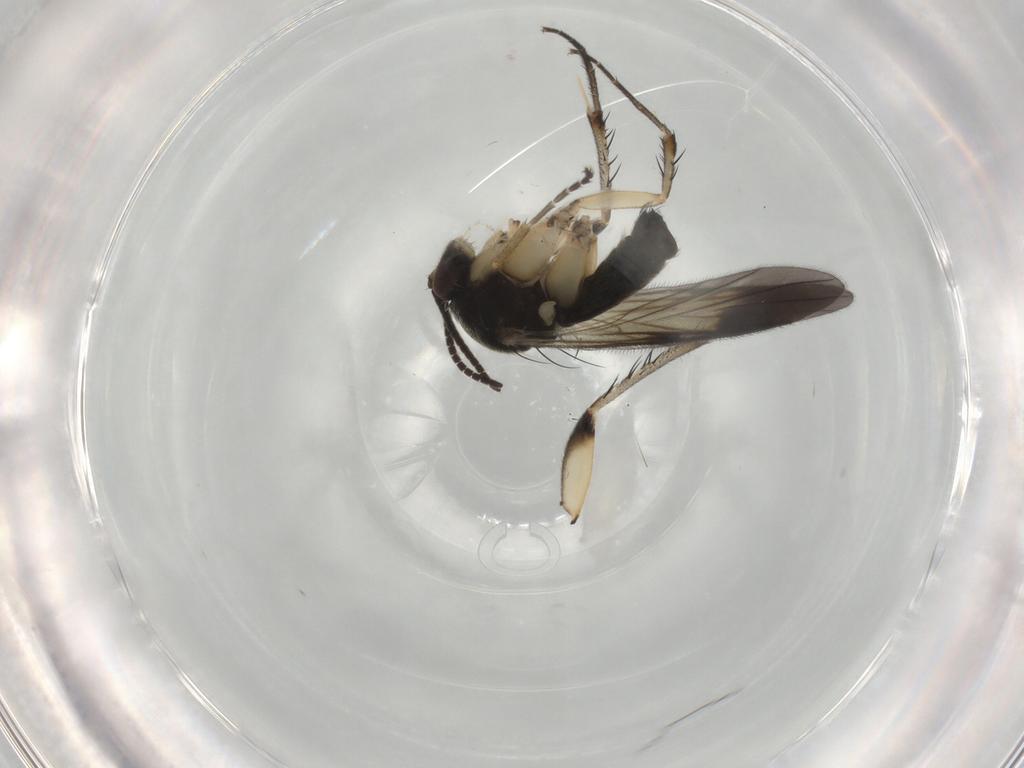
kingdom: Animalia
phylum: Arthropoda
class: Insecta
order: Diptera
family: Mycetophilidae
